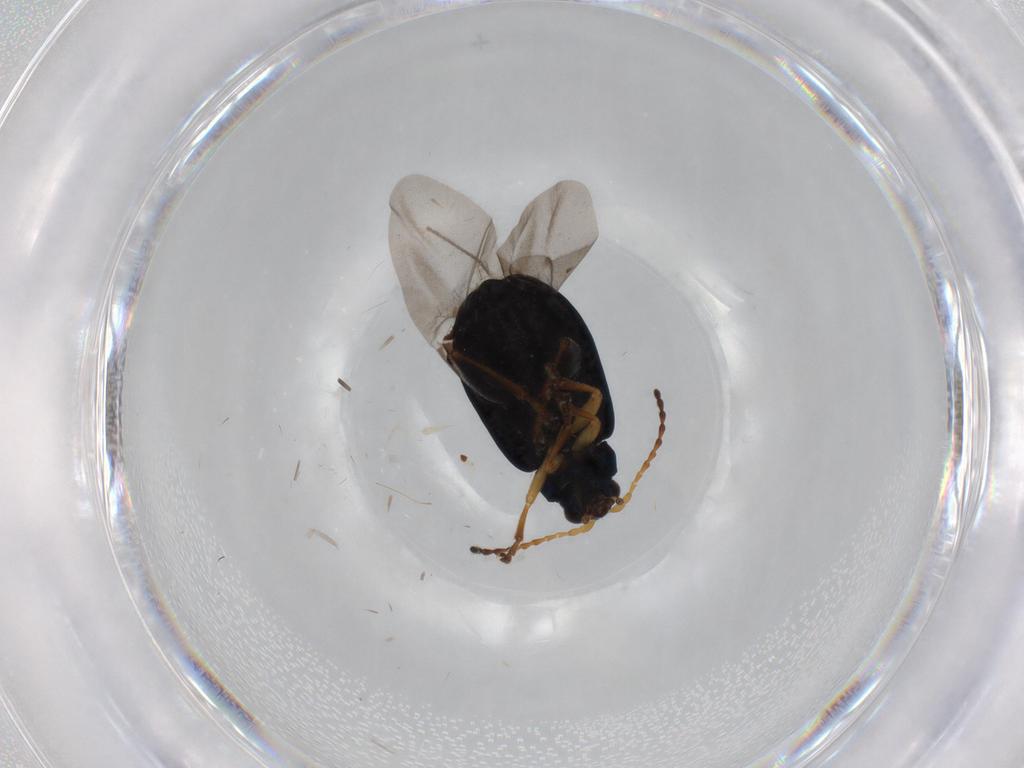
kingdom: Animalia
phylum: Arthropoda
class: Insecta
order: Coleoptera
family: Chrysomelidae
